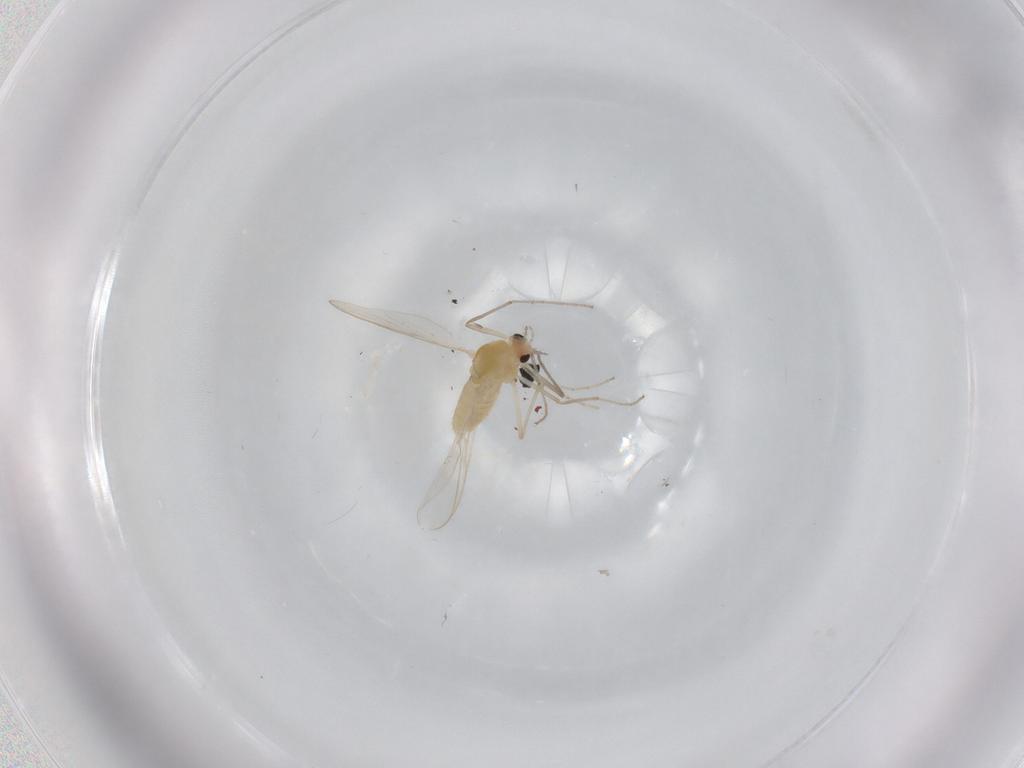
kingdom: Animalia
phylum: Arthropoda
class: Insecta
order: Diptera
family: Chironomidae
